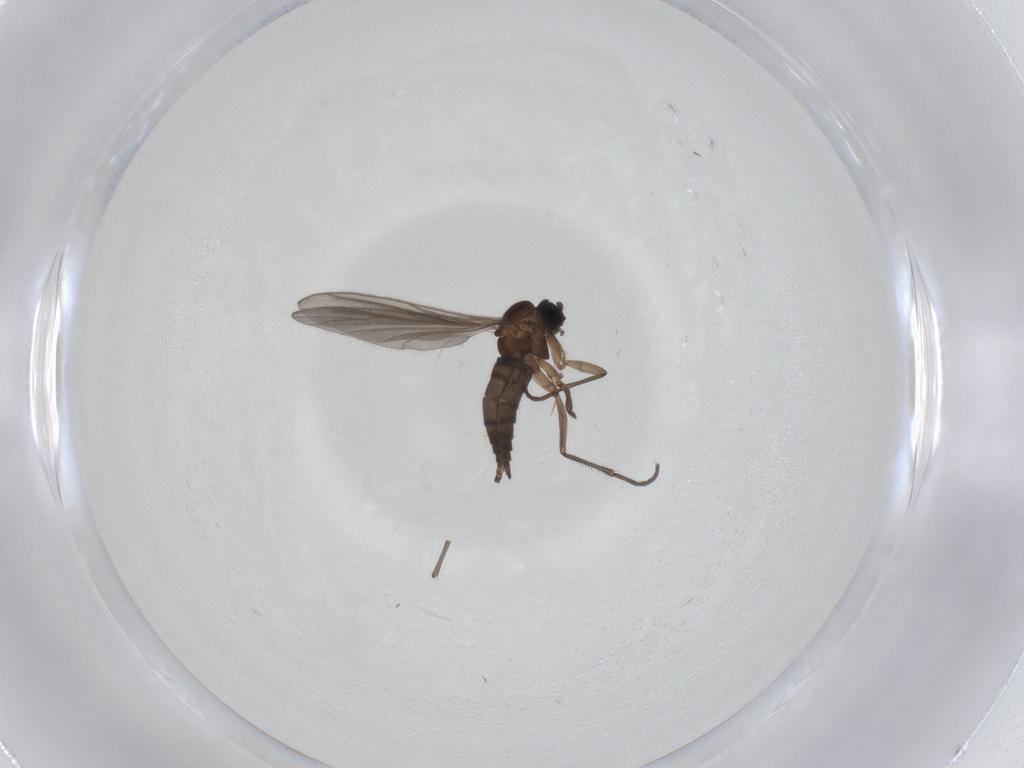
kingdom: Animalia
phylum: Arthropoda
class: Insecta
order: Diptera
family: Sciaridae
